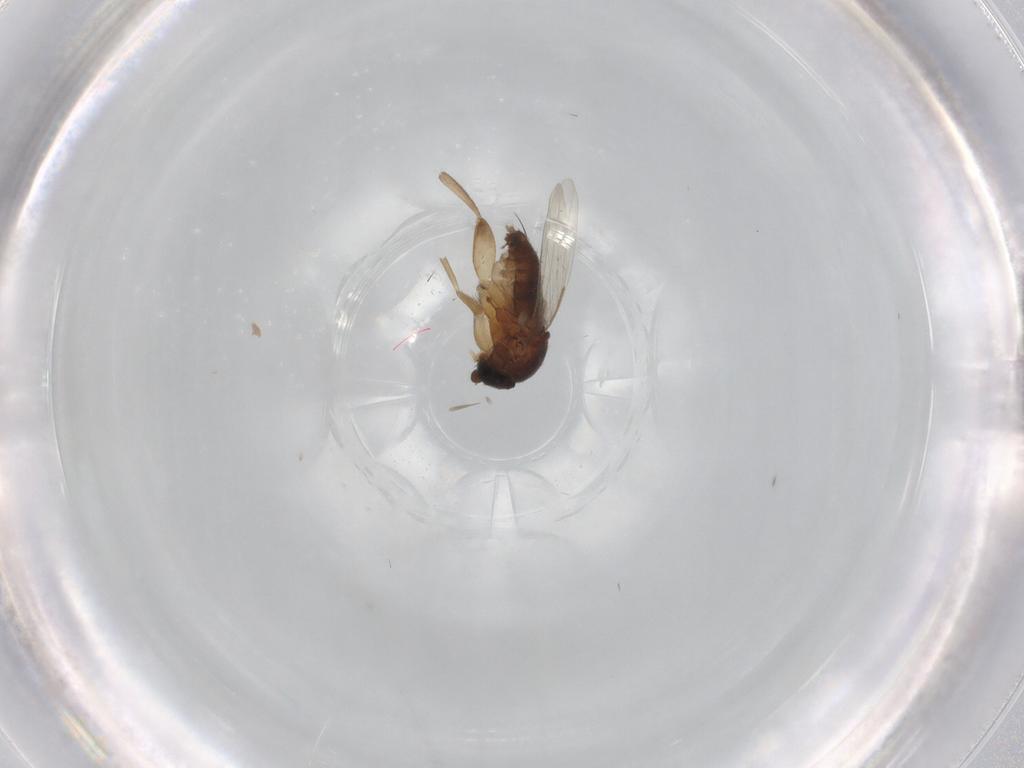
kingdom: Animalia
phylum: Arthropoda
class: Insecta
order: Diptera
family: Phoridae
